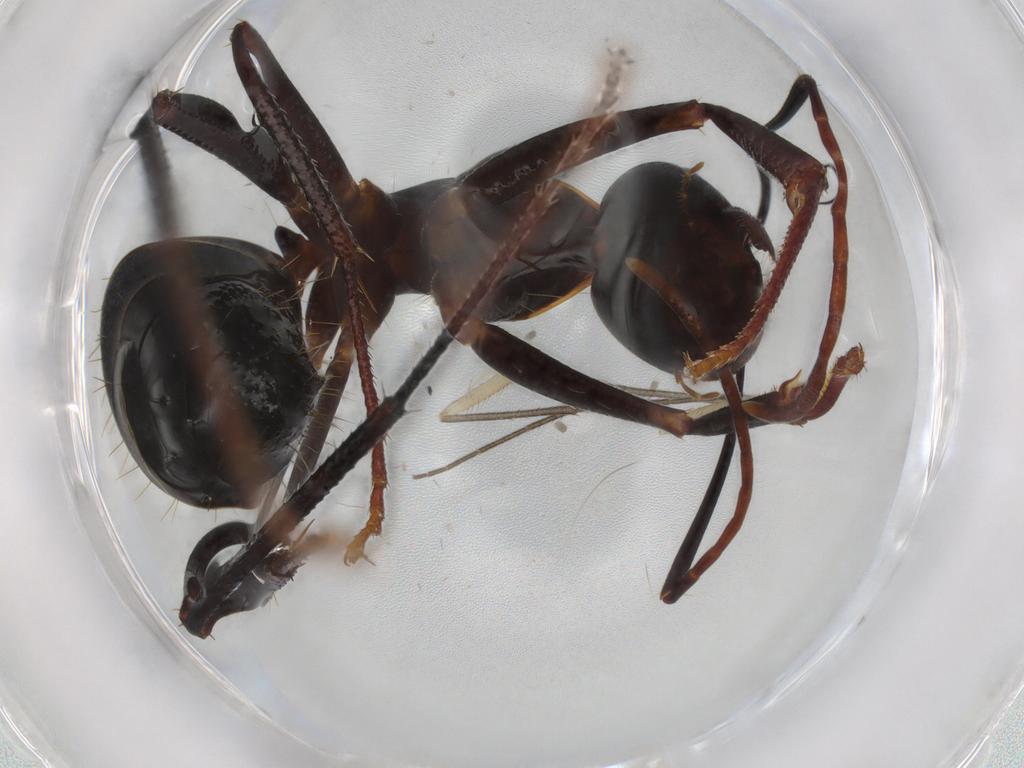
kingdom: Animalia
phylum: Arthropoda
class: Insecta
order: Hymenoptera
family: Formicidae
